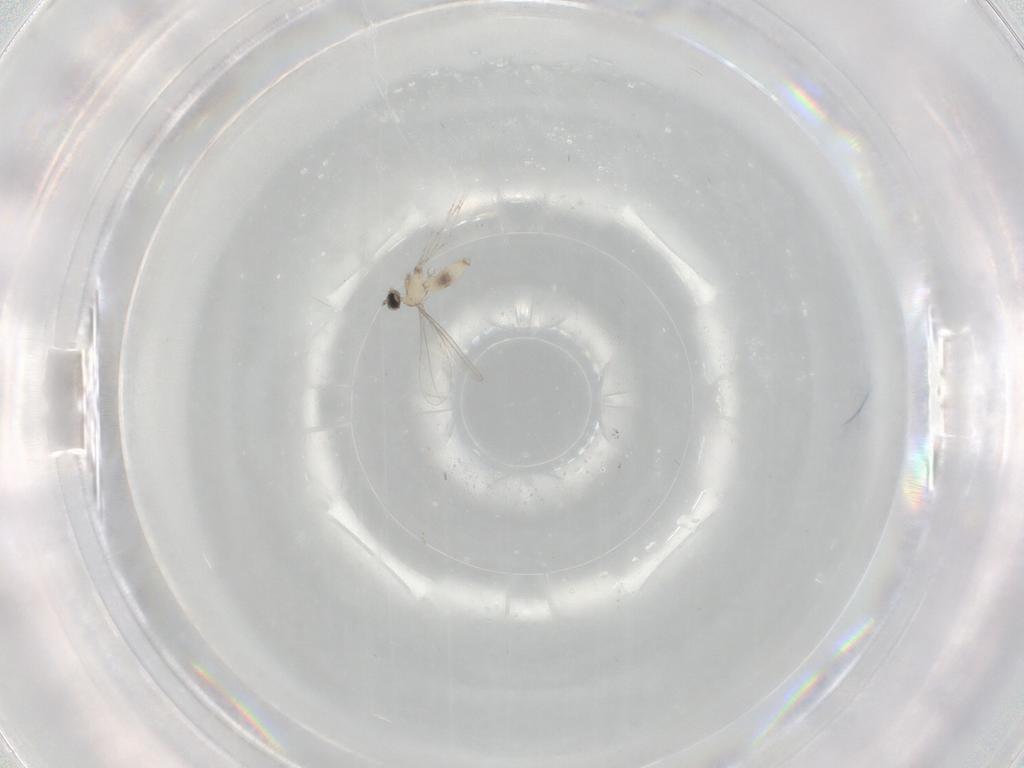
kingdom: Animalia
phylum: Arthropoda
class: Insecta
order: Diptera
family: Cecidomyiidae
